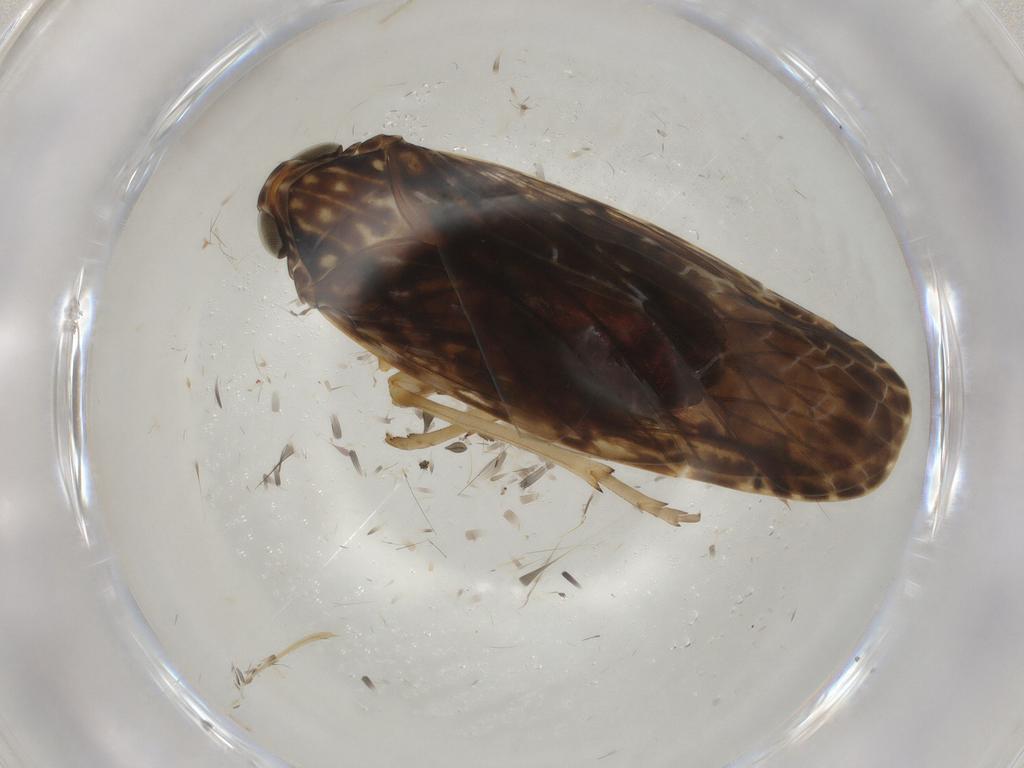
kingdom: Animalia
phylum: Arthropoda
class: Insecta
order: Hemiptera
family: Achilidae
